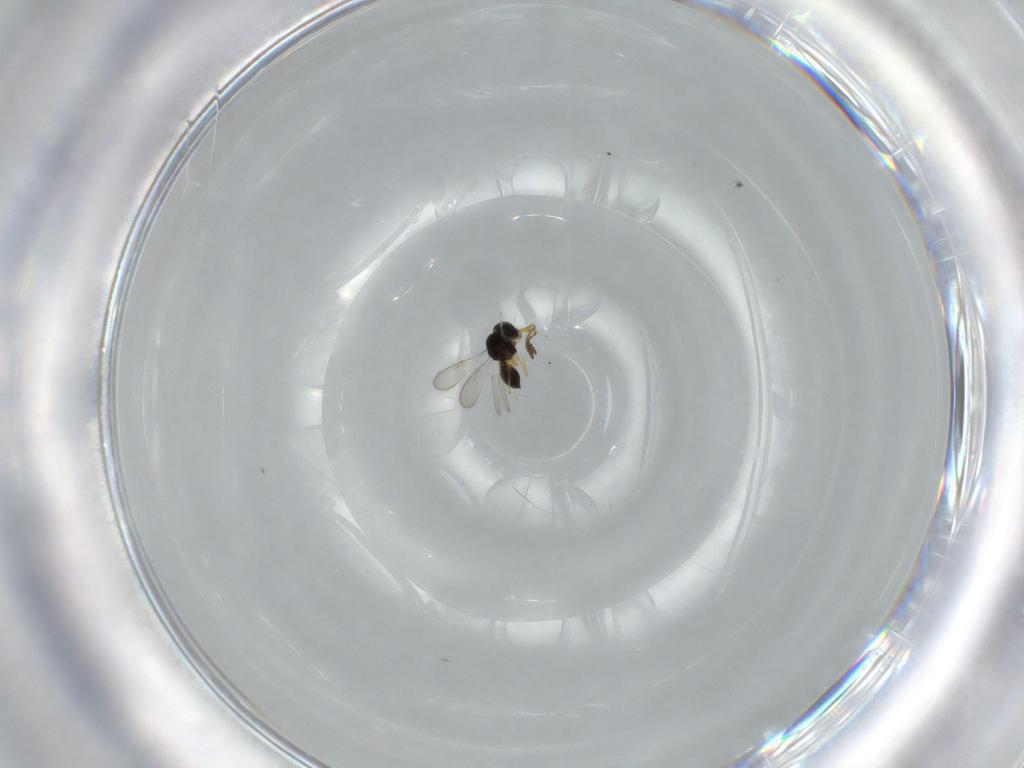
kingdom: Animalia
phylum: Arthropoda
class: Insecta
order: Hymenoptera
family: Scelionidae
